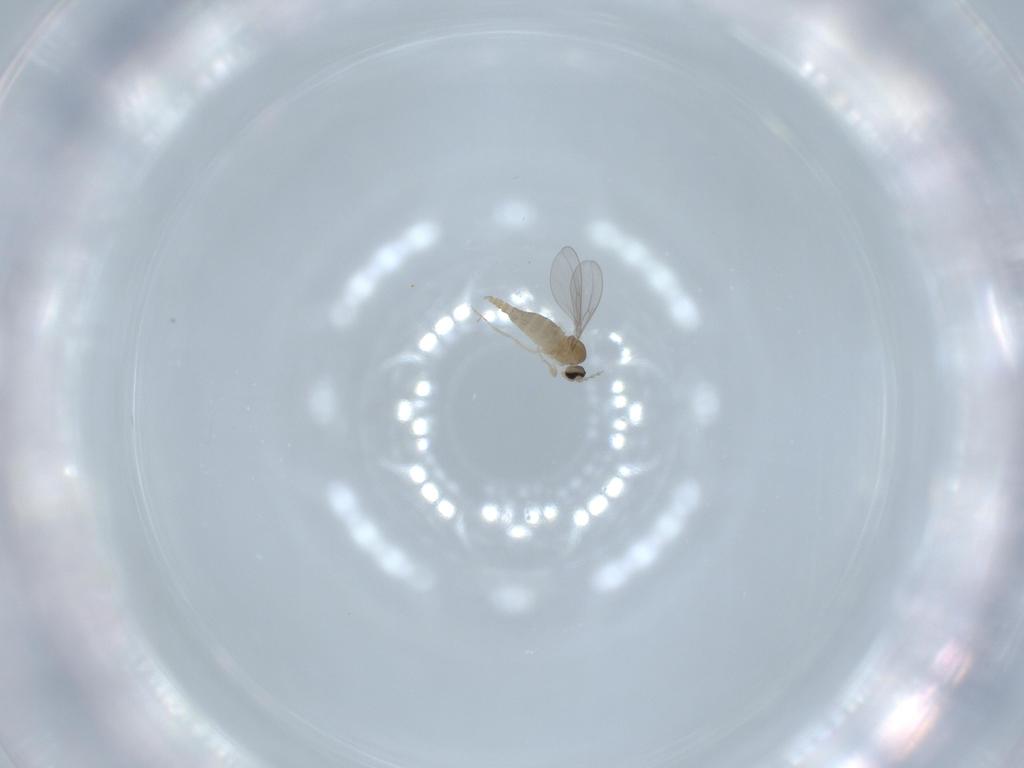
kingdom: Animalia
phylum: Arthropoda
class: Insecta
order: Diptera
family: Cecidomyiidae
